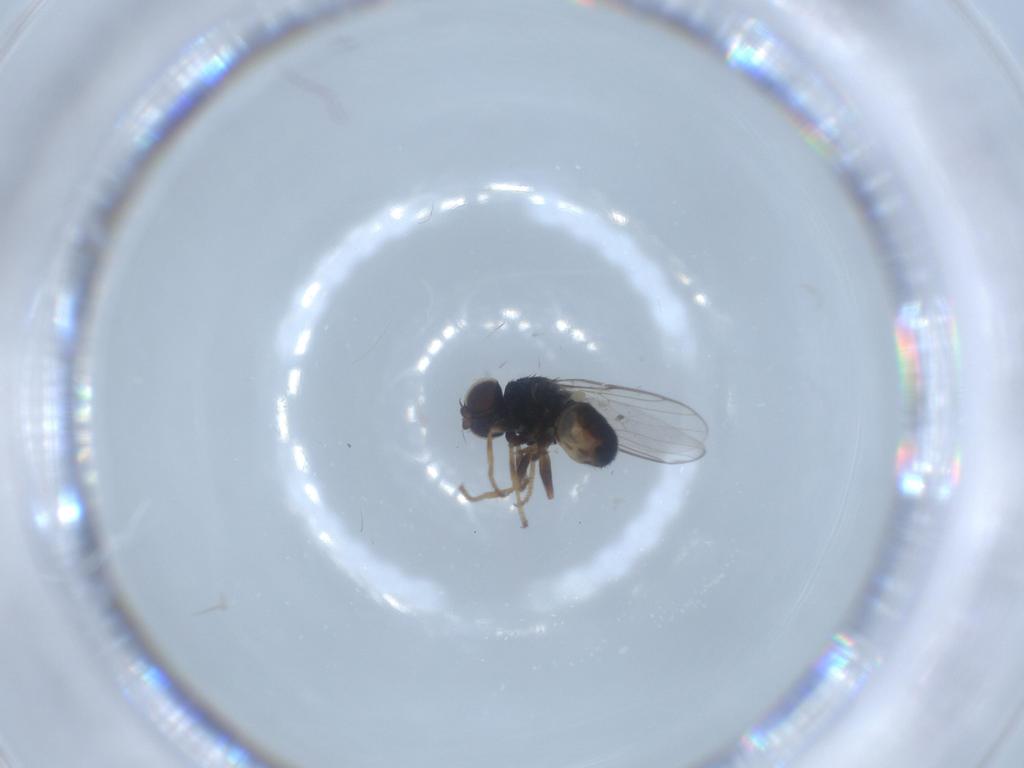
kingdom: Animalia
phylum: Arthropoda
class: Insecta
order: Diptera
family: Chloropidae
